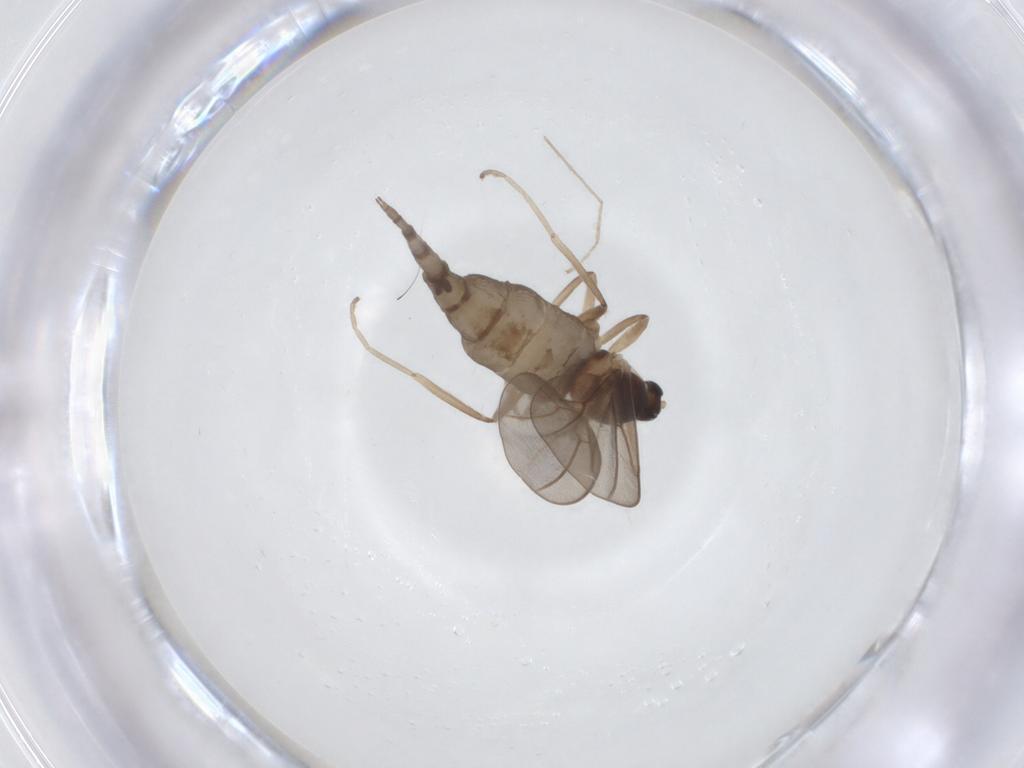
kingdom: Animalia
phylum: Arthropoda
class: Insecta
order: Diptera
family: Cecidomyiidae
